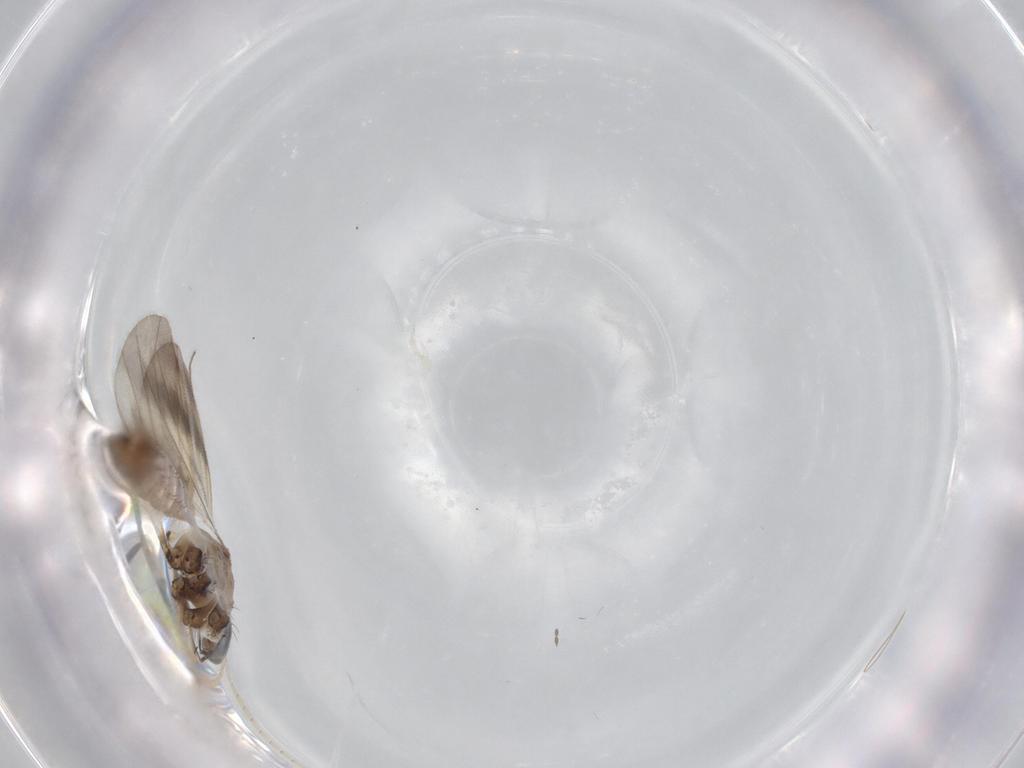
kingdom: Animalia
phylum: Arthropoda
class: Insecta
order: Diptera
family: Phoridae
